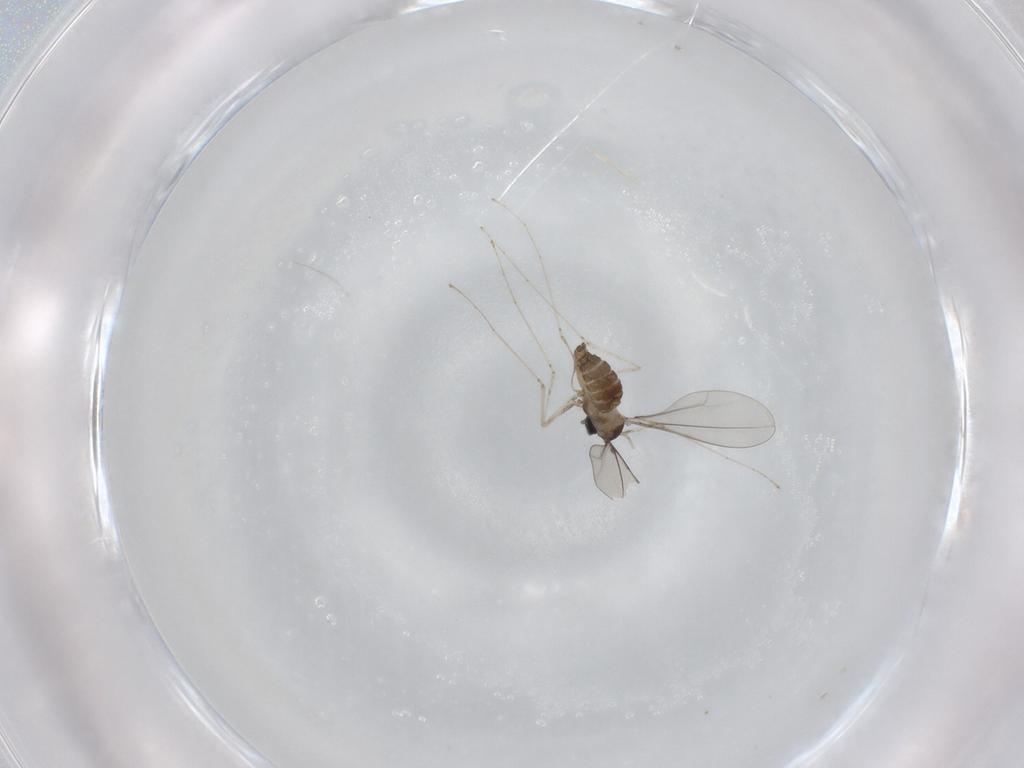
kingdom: Animalia
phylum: Arthropoda
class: Insecta
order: Diptera
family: Cecidomyiidae
